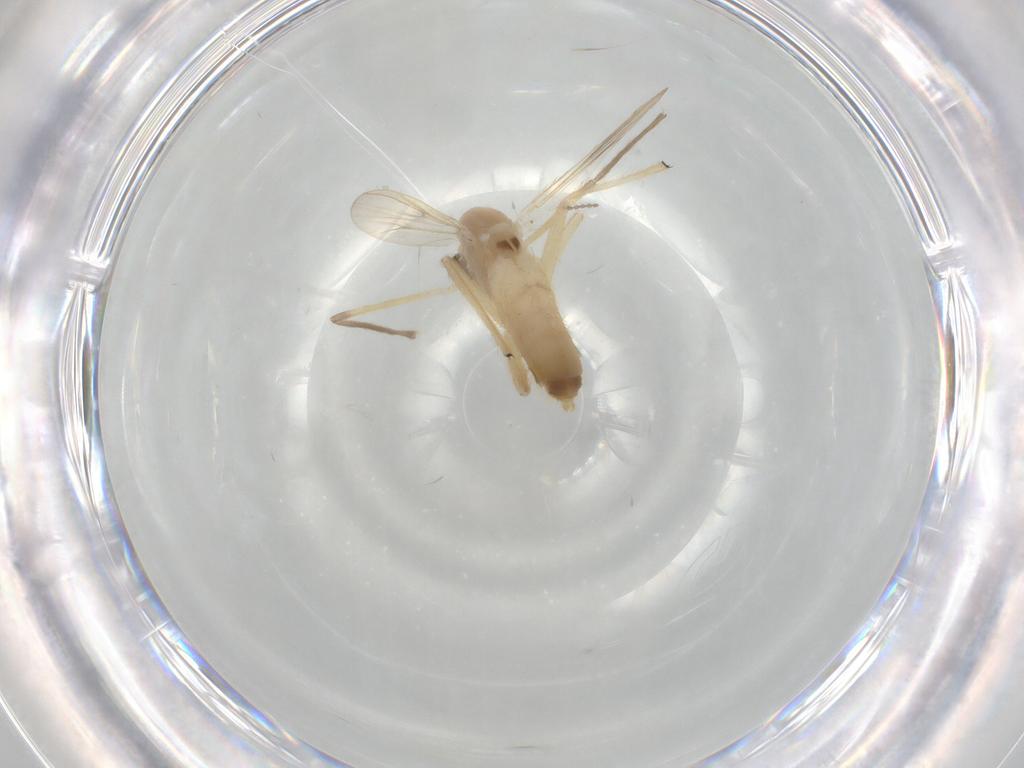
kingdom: Animalia
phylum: Arthropoda
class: Insecta
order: Diptera
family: Chironomidae
